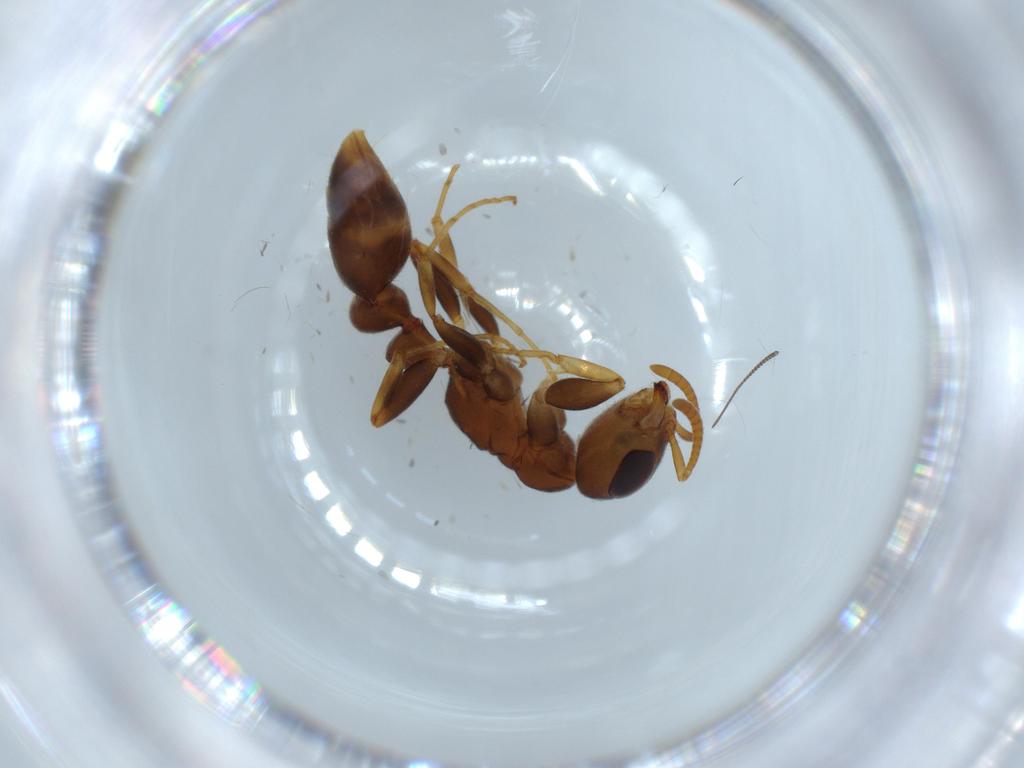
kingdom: Animalia
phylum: Arthropoda
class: Insecta
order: Hymenoptera
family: Formicidae
